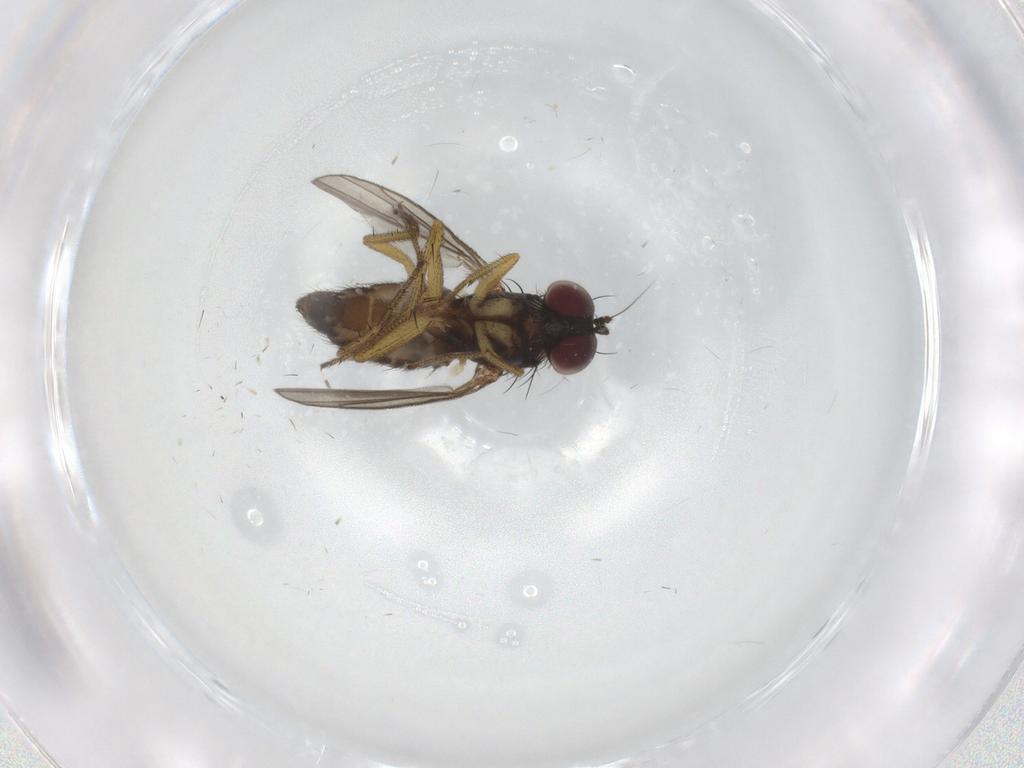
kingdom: Animalia
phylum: Arthropoda
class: Insecta
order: Diptera
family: Dolichopodidae
